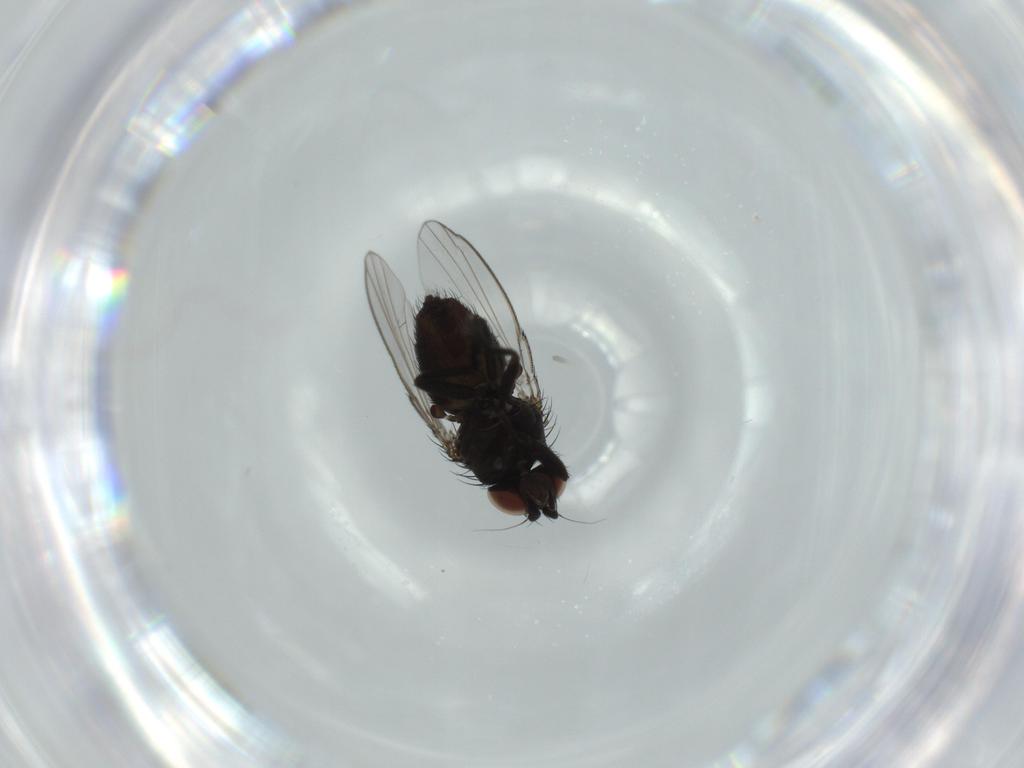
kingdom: Animalia
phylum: Arthropoda
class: Insecta
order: Diptera
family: Milichiidae
